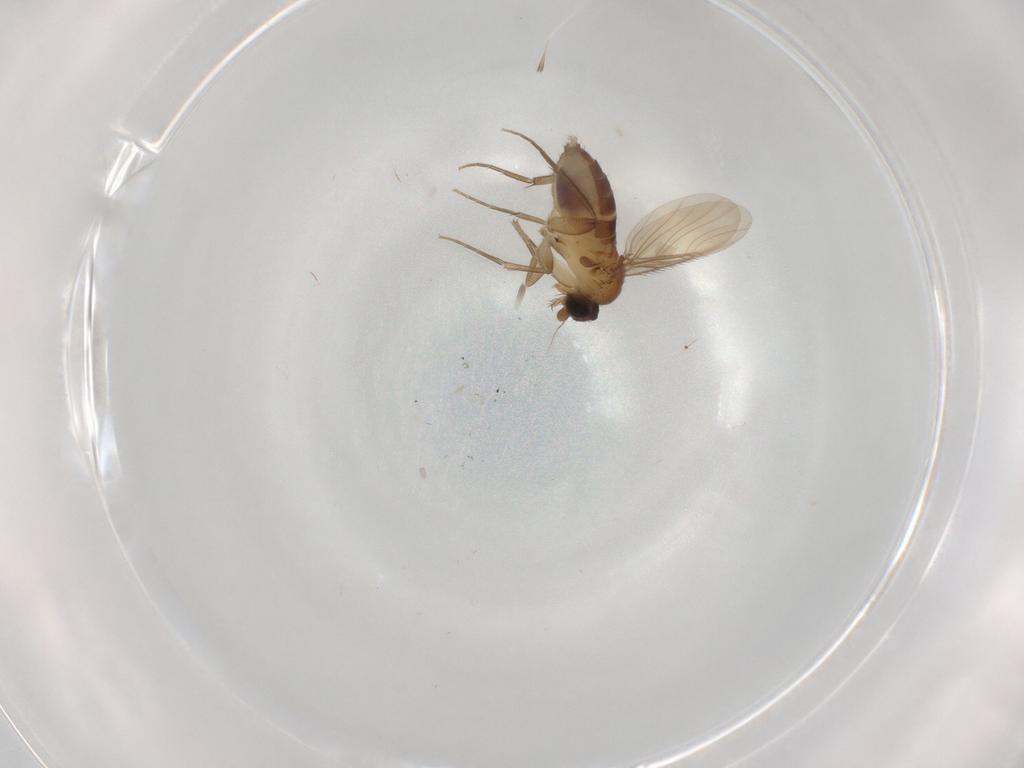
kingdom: Animalia
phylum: Arthropoda
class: Insecta
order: Diptera
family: Phoridae
